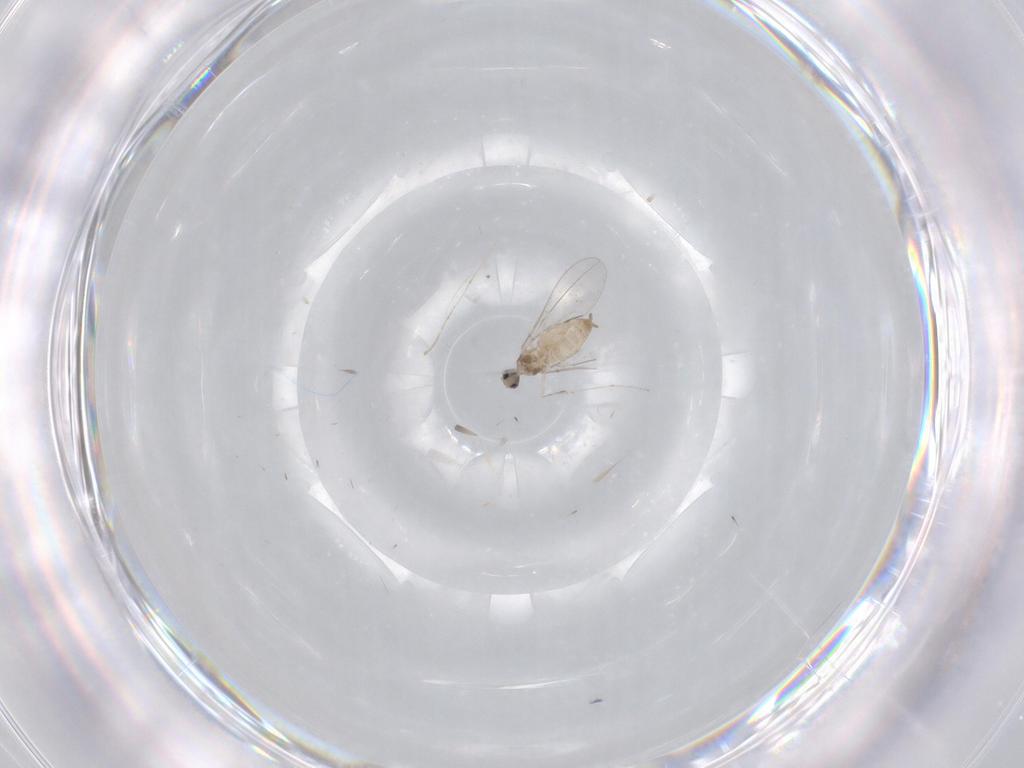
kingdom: Animalia
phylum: Arthropoda
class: Insecta
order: Diptera
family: Cecidomyiidae
